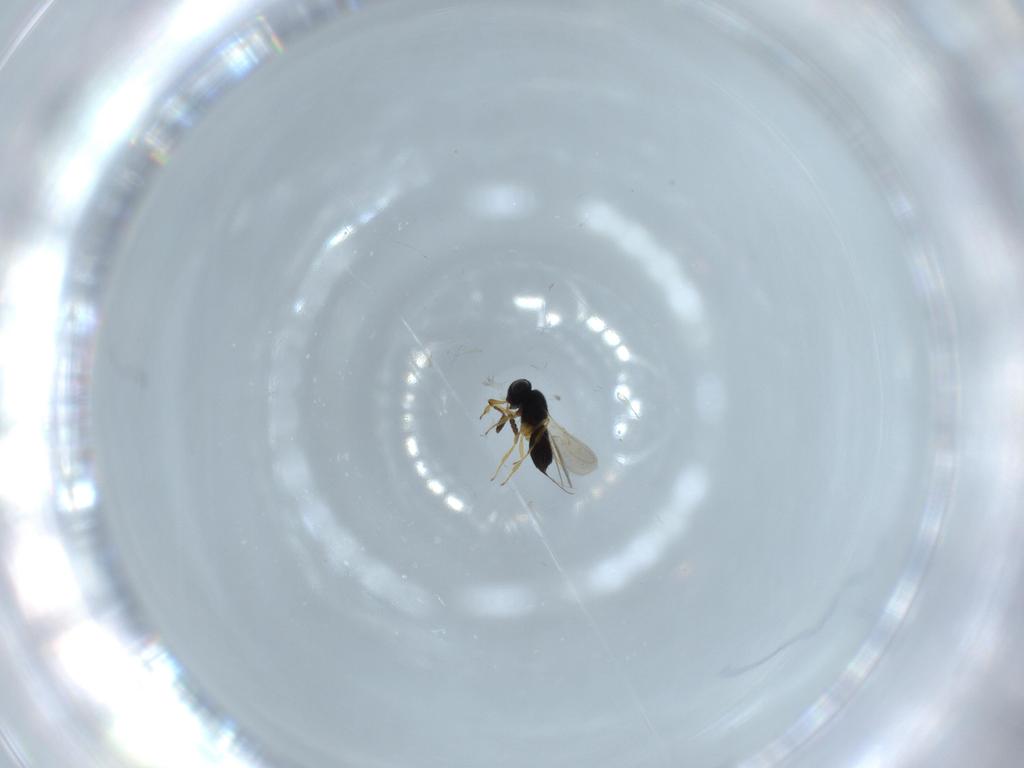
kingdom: Animalia
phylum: Arthropoda
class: Insecta
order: Hymenoptera
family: Scelionidae
